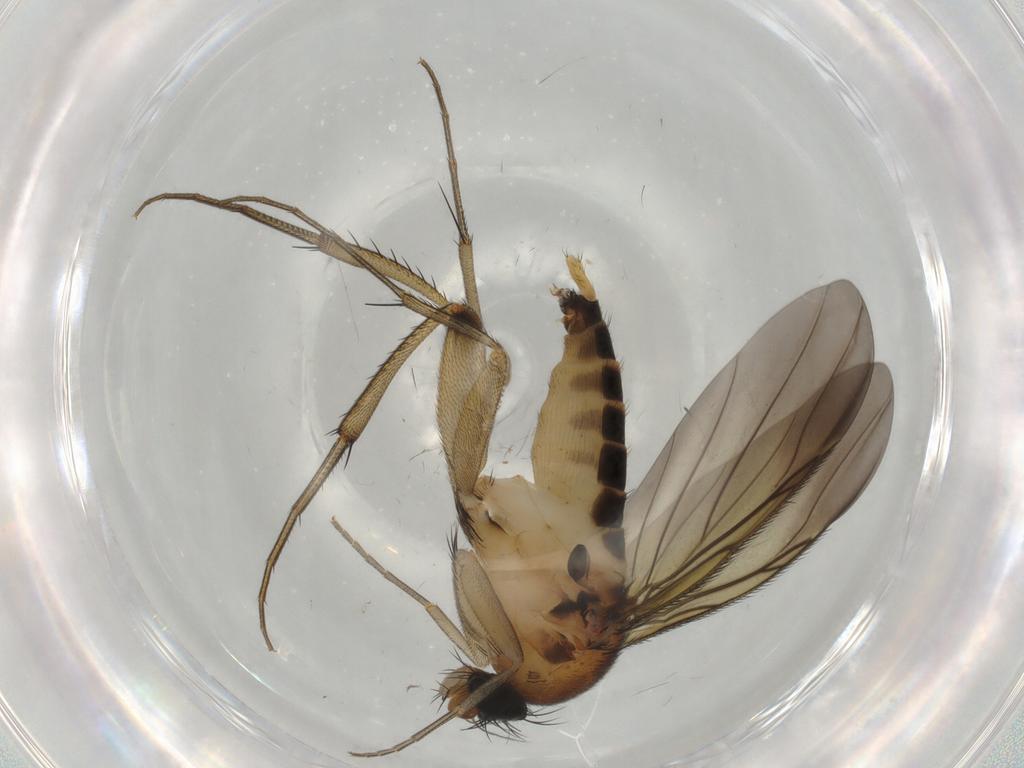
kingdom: Animalia
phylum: Arthropoda
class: Insecta
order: Diptera
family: Phoridae
